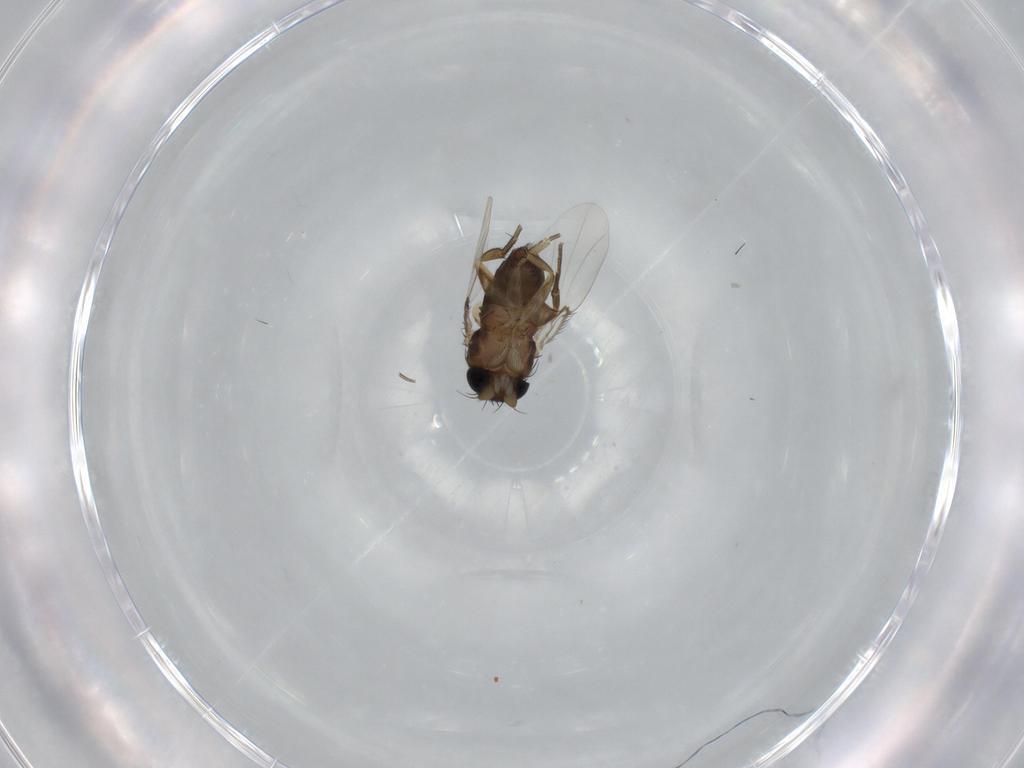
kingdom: Animalia
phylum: Arthropoda
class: Insecta
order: Diptera
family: Phoridae
